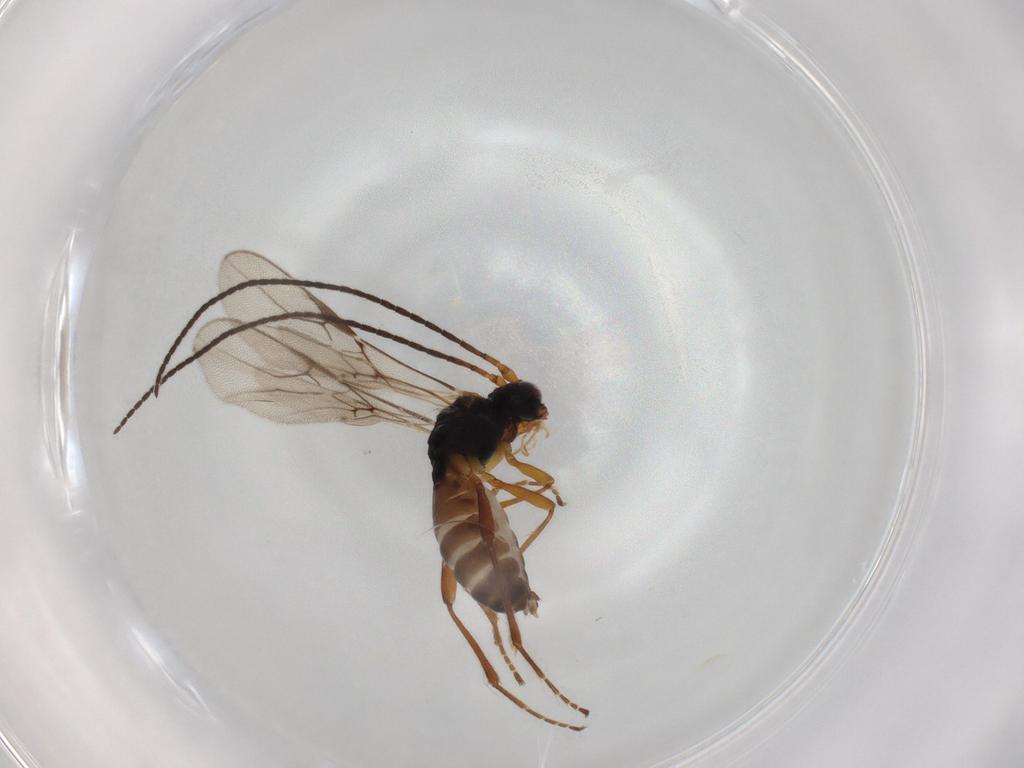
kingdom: Animalia
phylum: Arthropoda
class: Insecta
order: Hymenoptera
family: Braconidae
